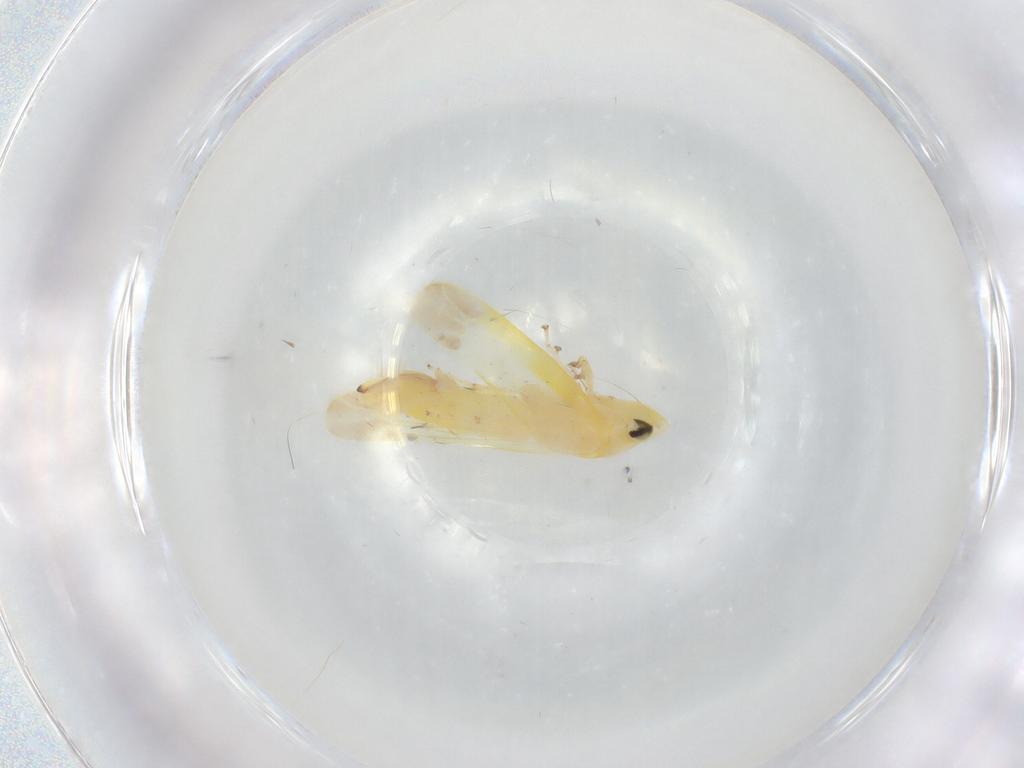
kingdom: Animalia
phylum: Arthropoda
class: Insecta
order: Hemiptera
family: Cicadellidae
